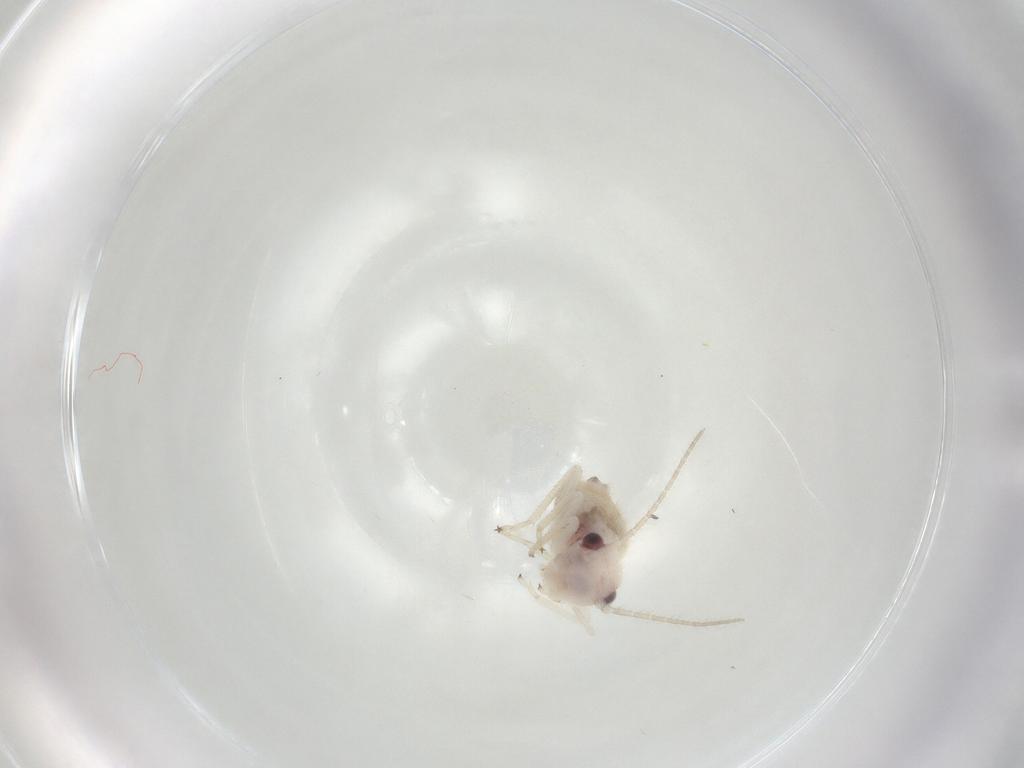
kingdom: Animalia
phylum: Arthropoda
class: Insecta
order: Psocodea
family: Amphipsocidae
